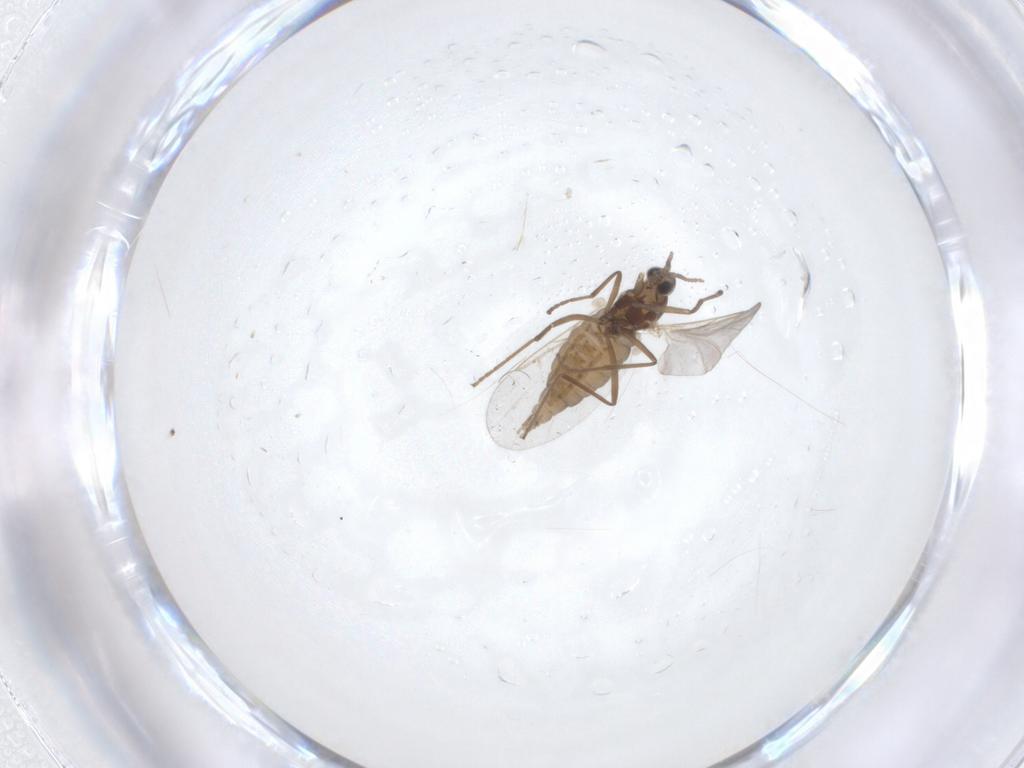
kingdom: Animalia
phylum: Arthropoda
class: Insecta
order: Diptera
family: Cecidomyiidae
